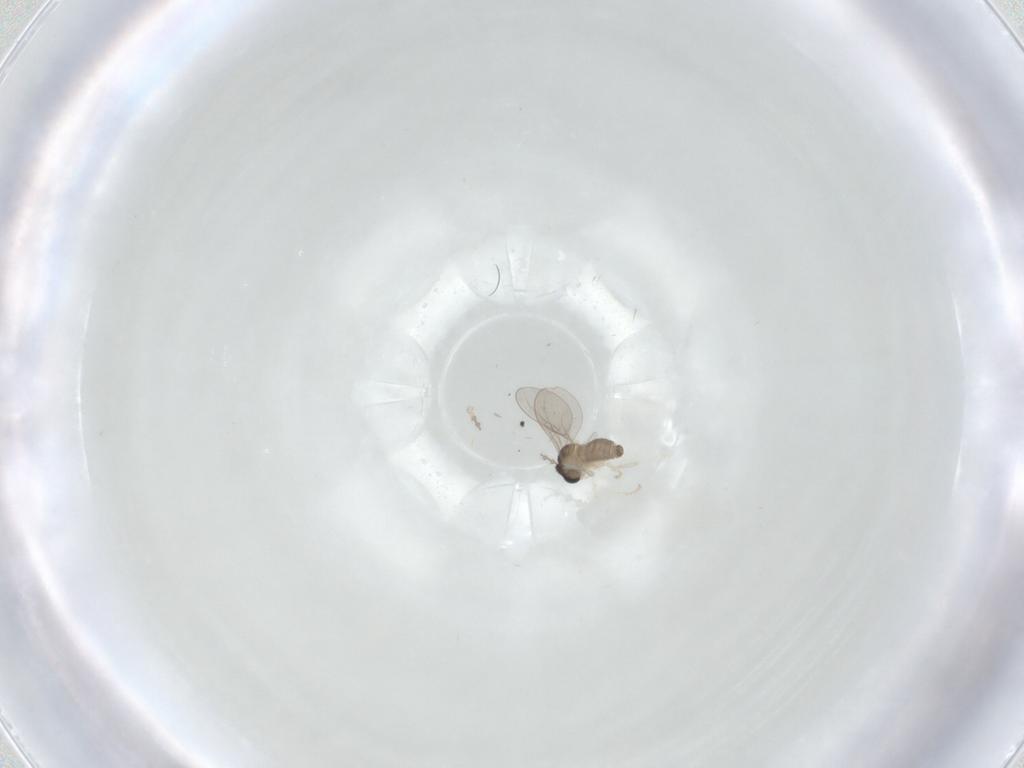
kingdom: Animalia
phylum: Arthropoda
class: Insecta
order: Diptera
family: Cecidomyiidae
